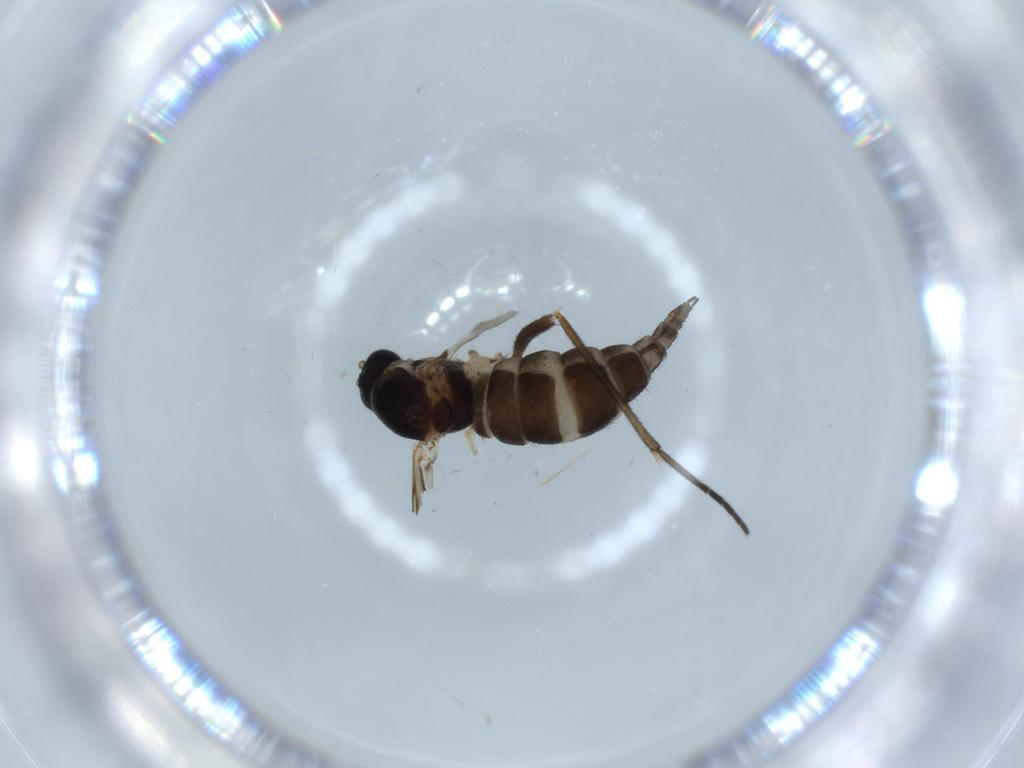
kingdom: Animalia
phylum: Arthropoda
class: Insecta
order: Diptera
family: Sciaridae
